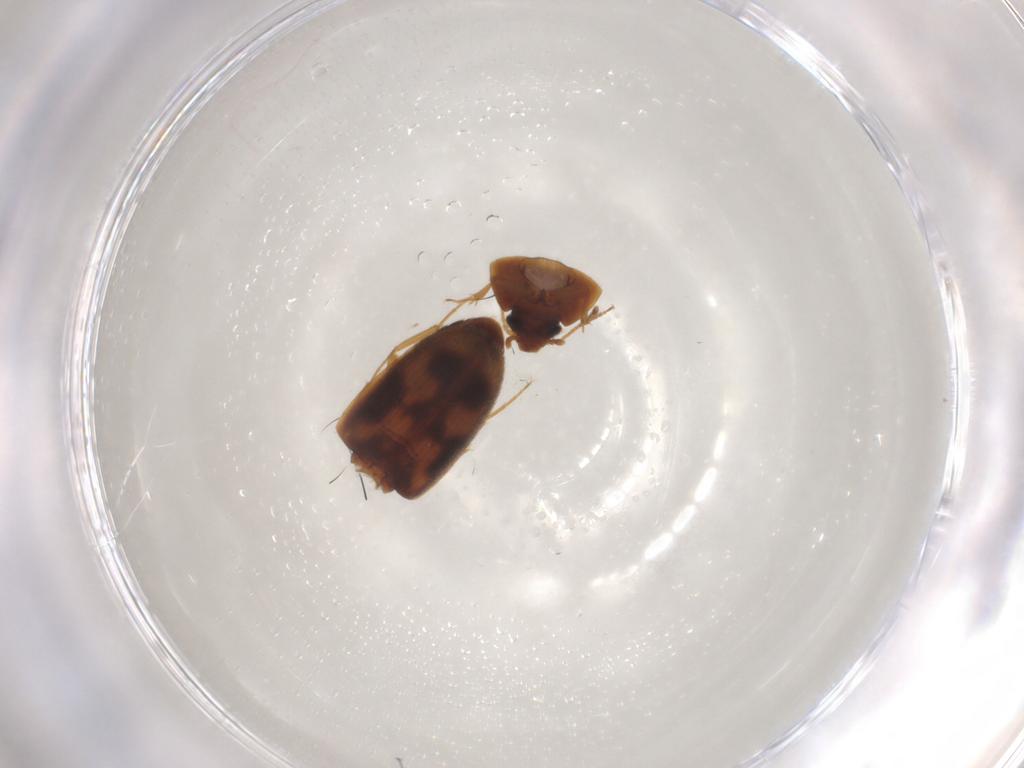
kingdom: Animalia
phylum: Arthropoda
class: Insecta
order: Coleoptera
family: Mycetophagidae
